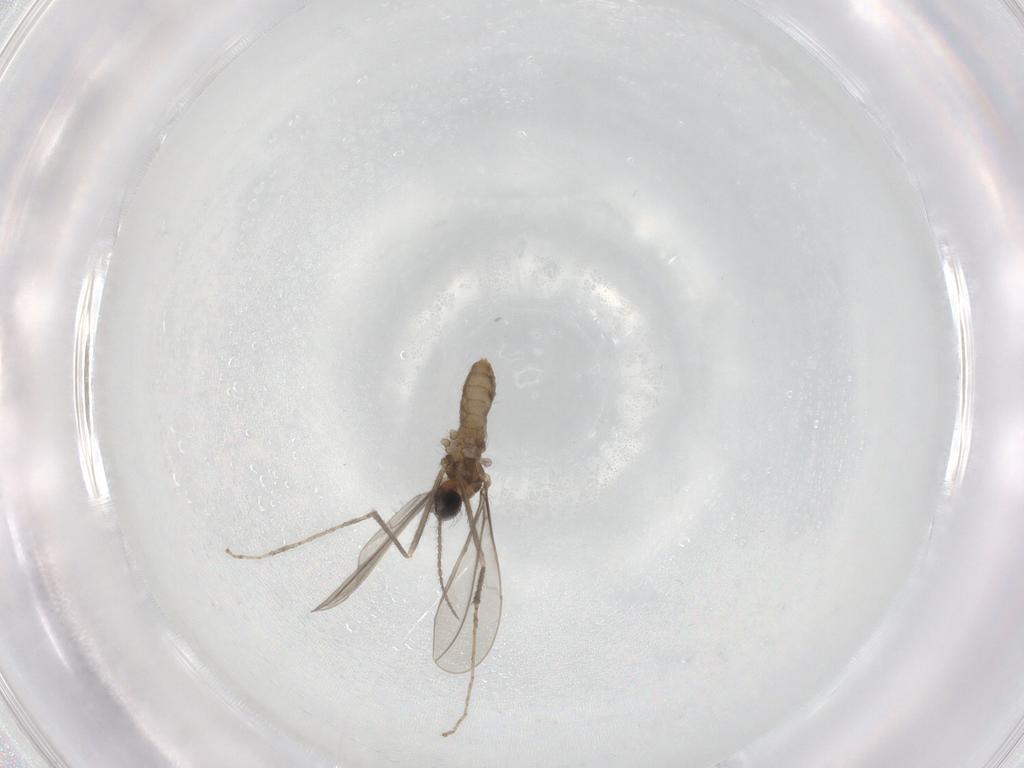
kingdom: Animalia
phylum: Arthropoda
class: Insecta
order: Diptera
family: Cecidomyiidae
